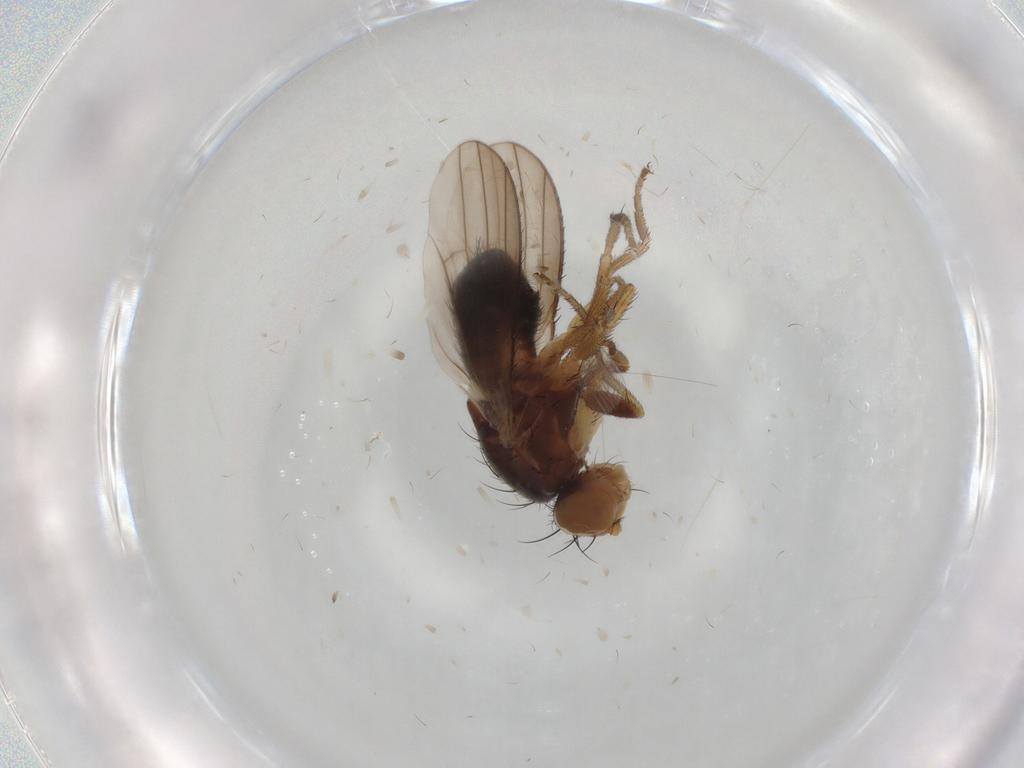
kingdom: Animalia
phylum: Arthropoda
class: Insecta
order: Diptera
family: Heleomyzidae
